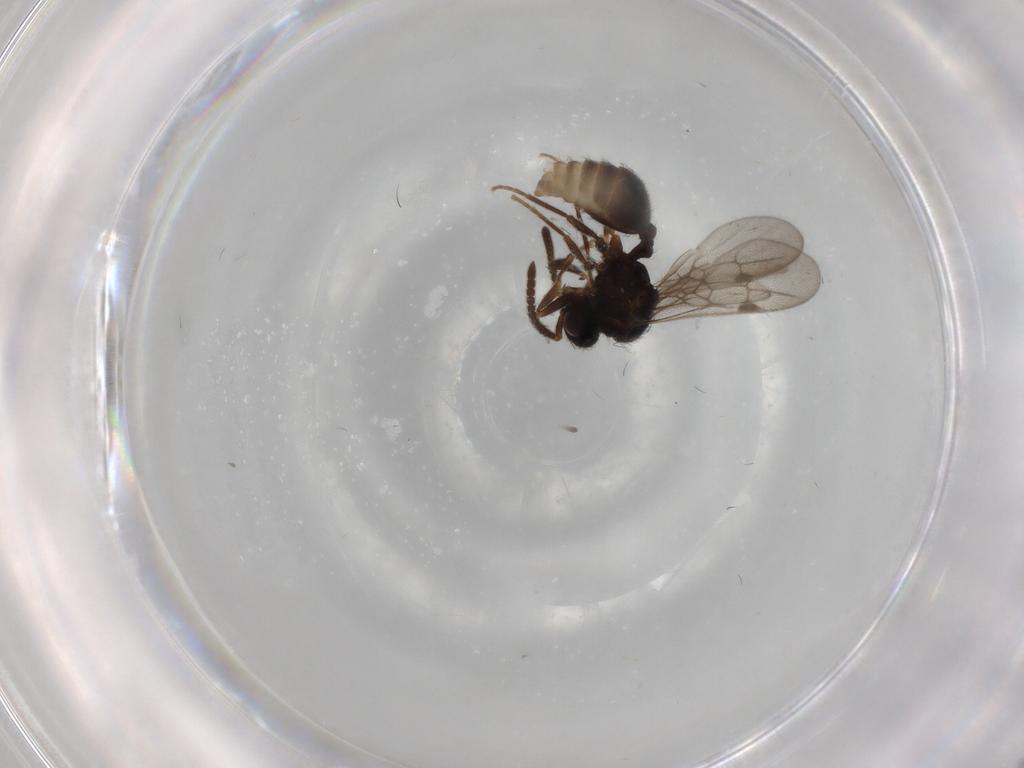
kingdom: Animalia
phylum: Arthropoda
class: Insecta
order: Hymenoptera
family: Formicidae
